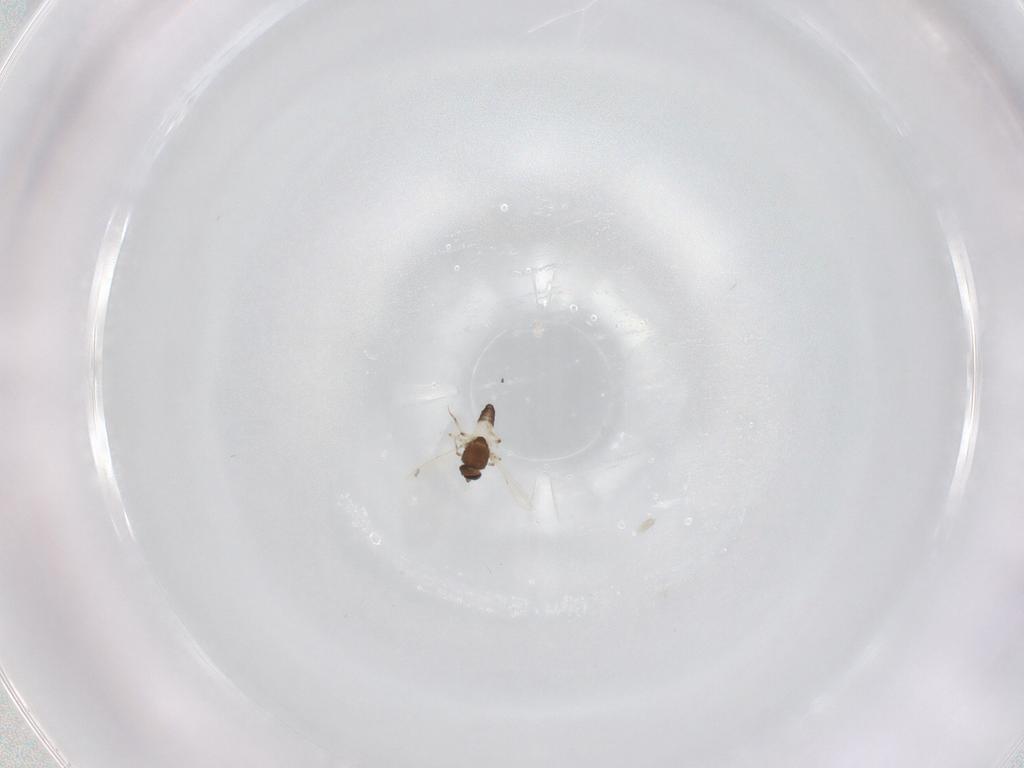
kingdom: Animalia
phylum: Arthropoda
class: Insecta
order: Diptera
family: Ceratopogonidae
